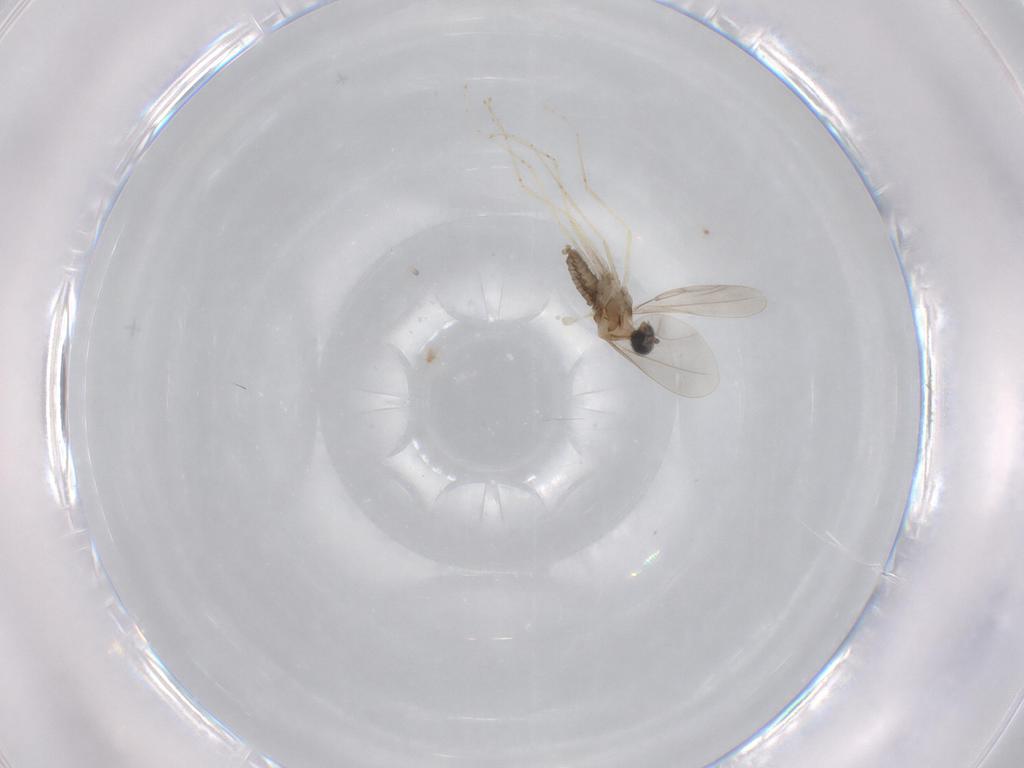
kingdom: Animalia
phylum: Arthropoda
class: Insecta
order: Diptera
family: Cecidomyiidae
